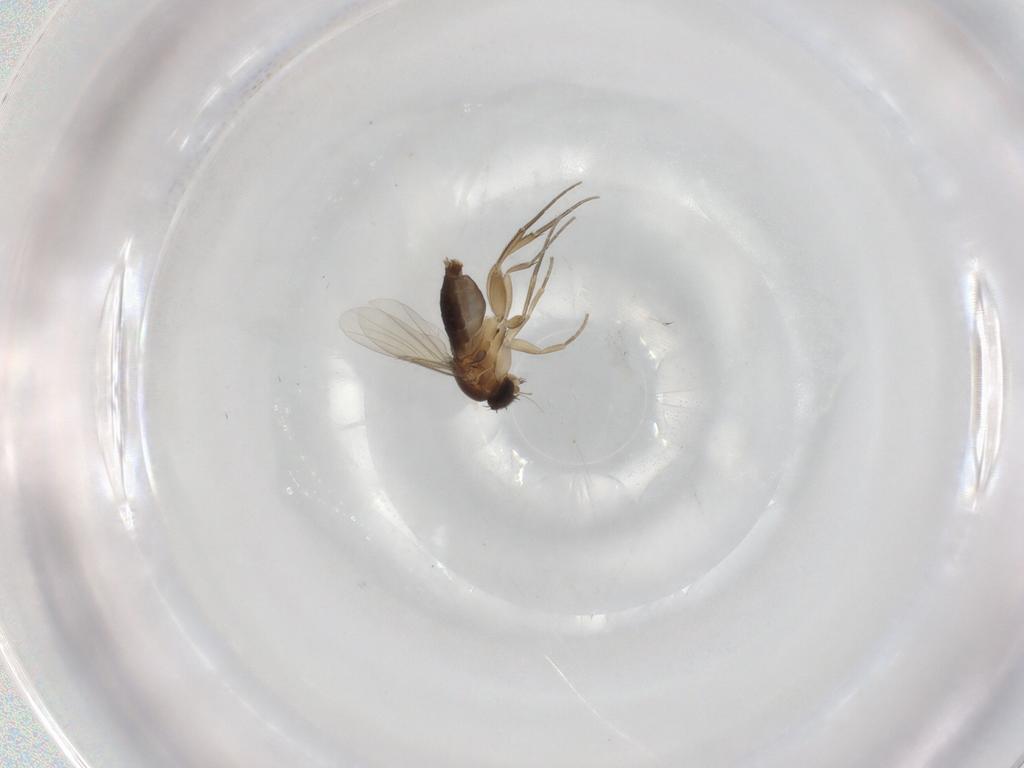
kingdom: Animalia
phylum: Arthropoda
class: Insecta
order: Diptera
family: Phoridae
